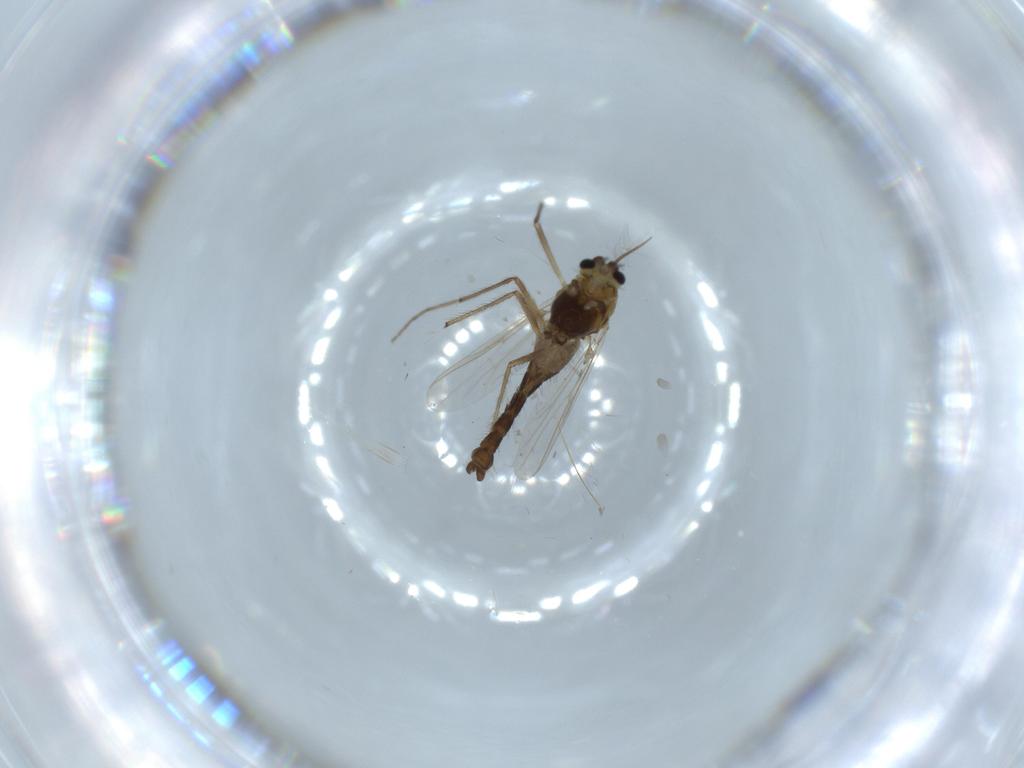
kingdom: Animalia
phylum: Arthropoda
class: Insecta
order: Diptera
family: Chironomidae
